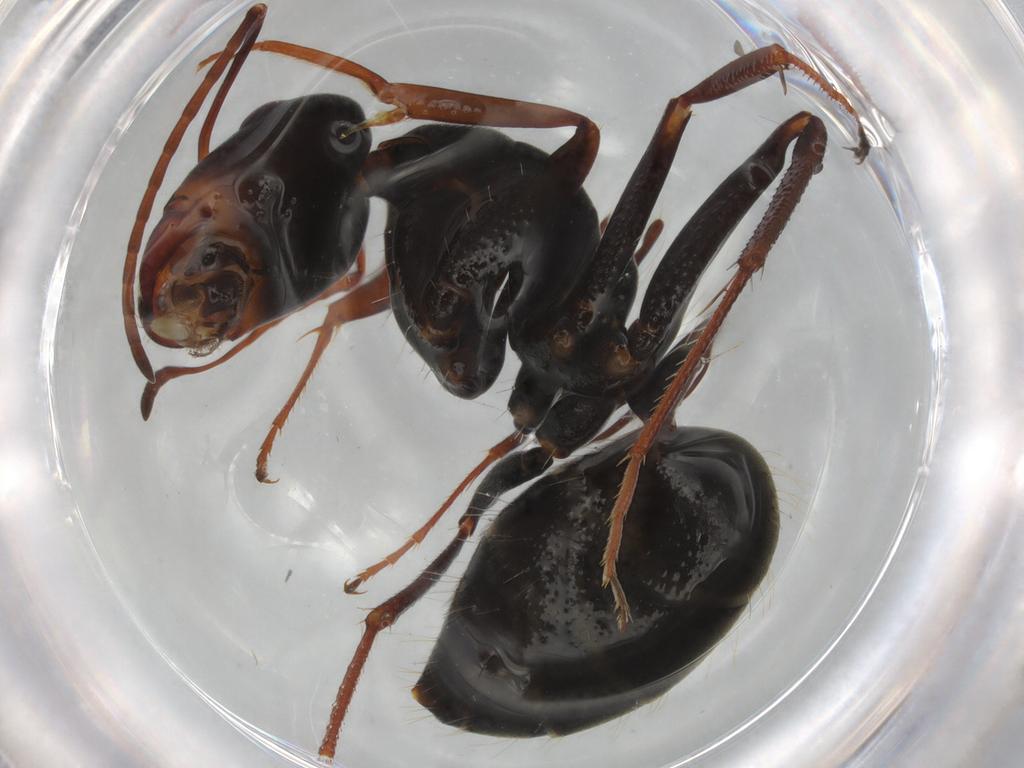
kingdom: Animalia
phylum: Arthropoda
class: Insecta
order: Hymenoptera
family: Formicidae
